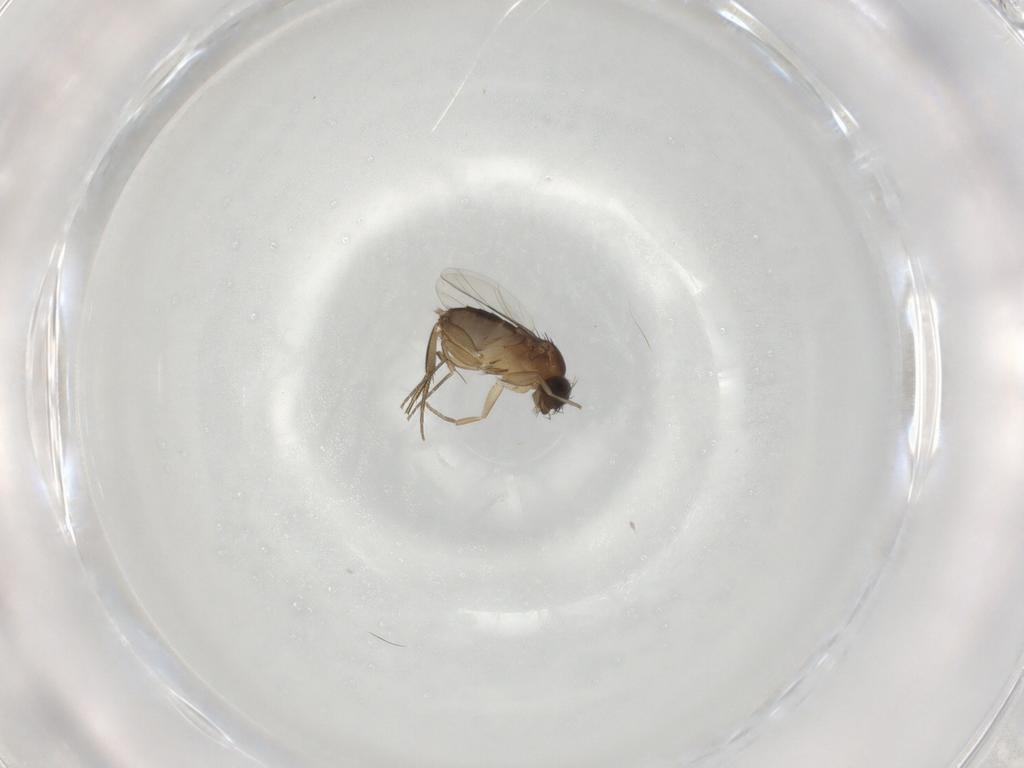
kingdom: Animalia
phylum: Arthropoda
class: Insecta
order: Diptera
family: Phoridae
